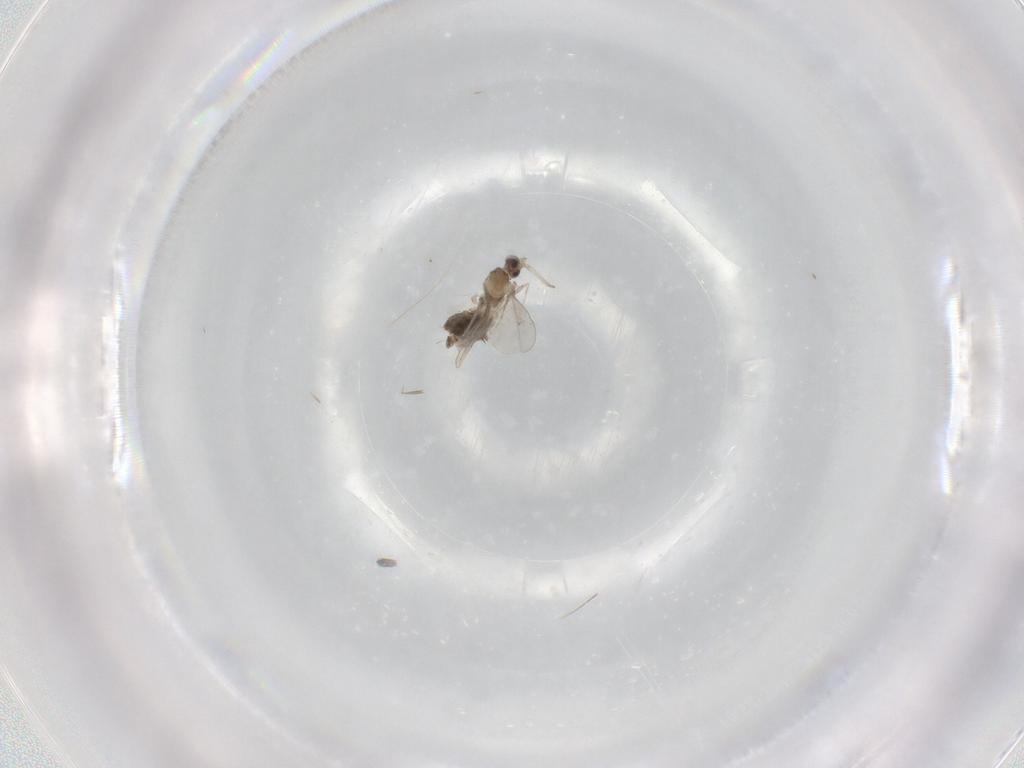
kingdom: Animalia
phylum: Arthropoda
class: Insecta
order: Diptera
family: Cecidomyiidae
